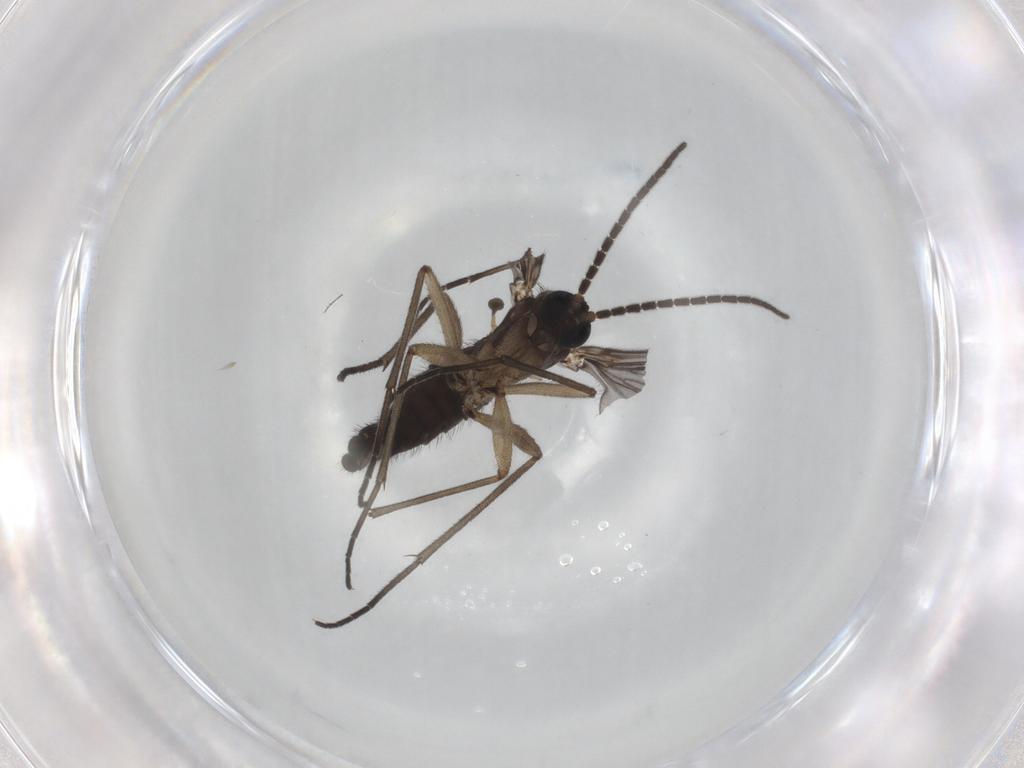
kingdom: Animalia
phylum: Arthropoda
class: Insecta
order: Diptera
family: Sciaridae
